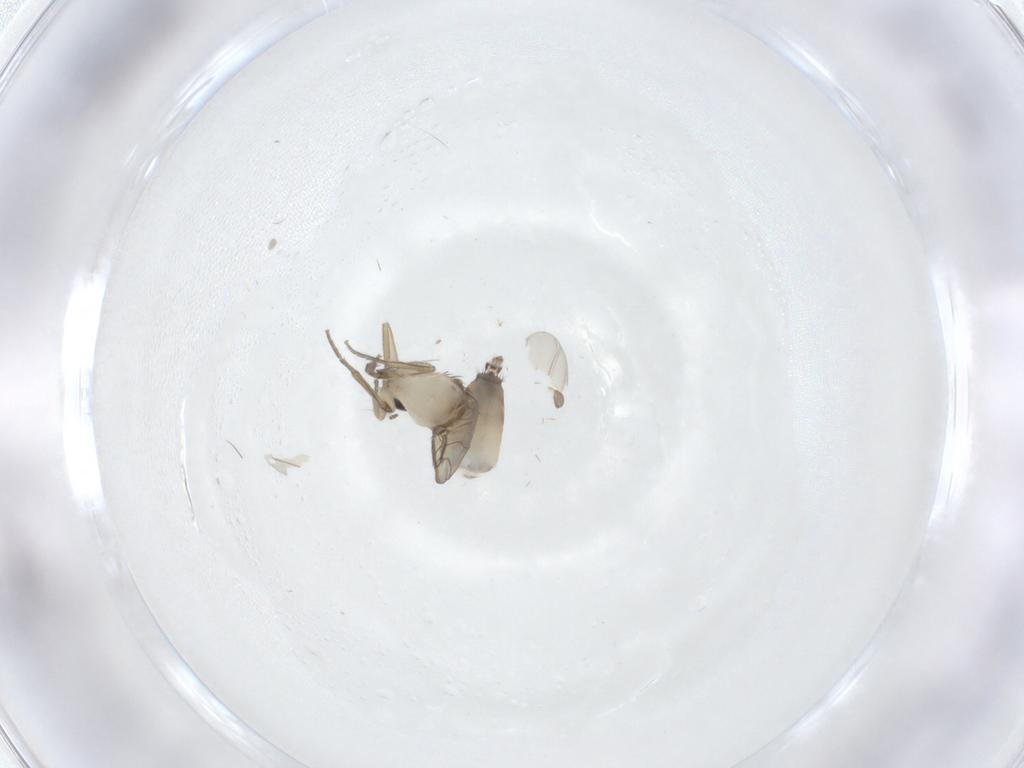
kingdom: Animalia
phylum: Arthropoda
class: Insecta
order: Diptera
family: Phoridae
